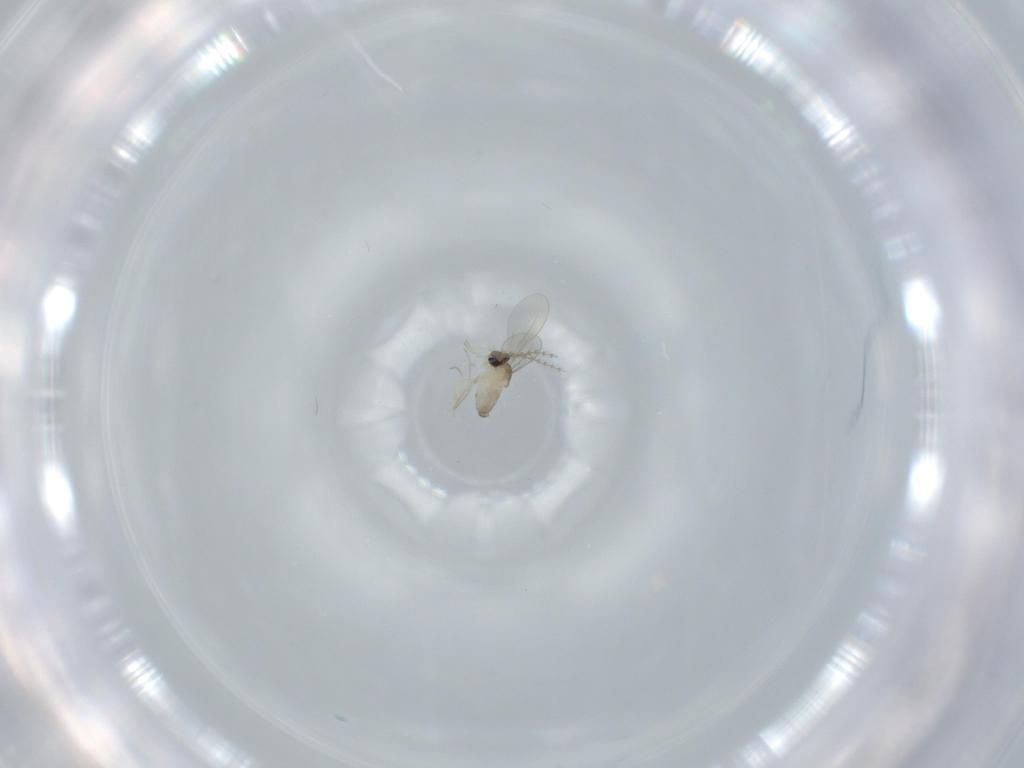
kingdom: Animalia
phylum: Arthropoda
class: Insecta
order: Diptera
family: Cecidomyiidae
